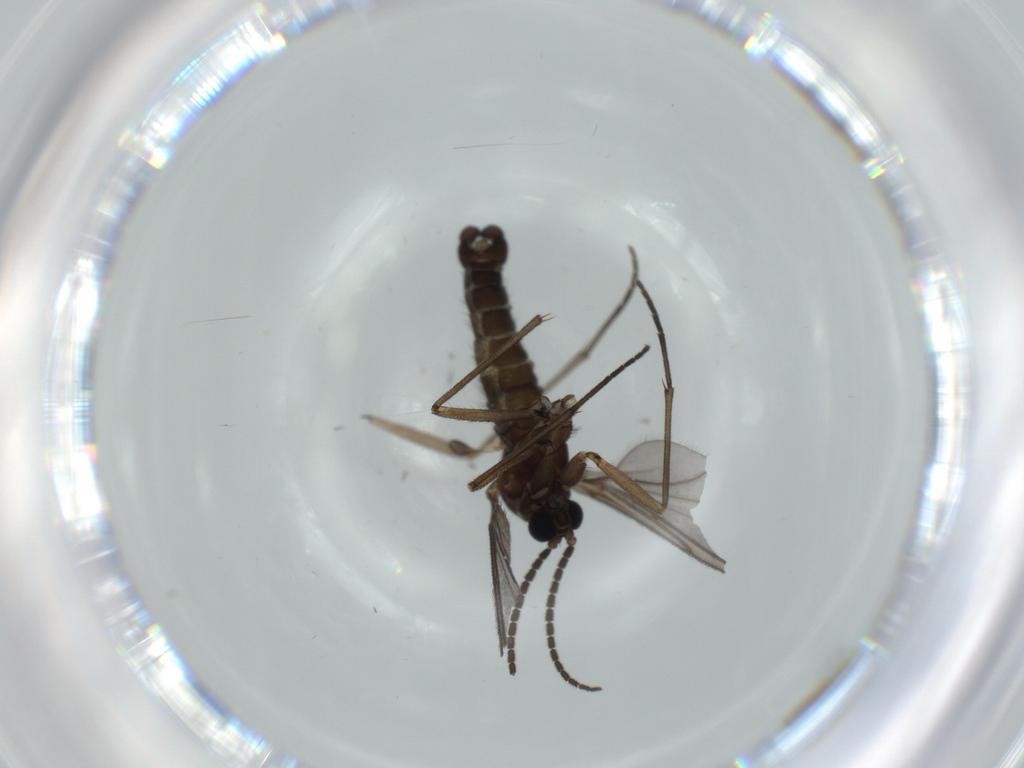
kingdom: Animalia
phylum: Arthropoda
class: Insecta
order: Diptera
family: Sciaridae
